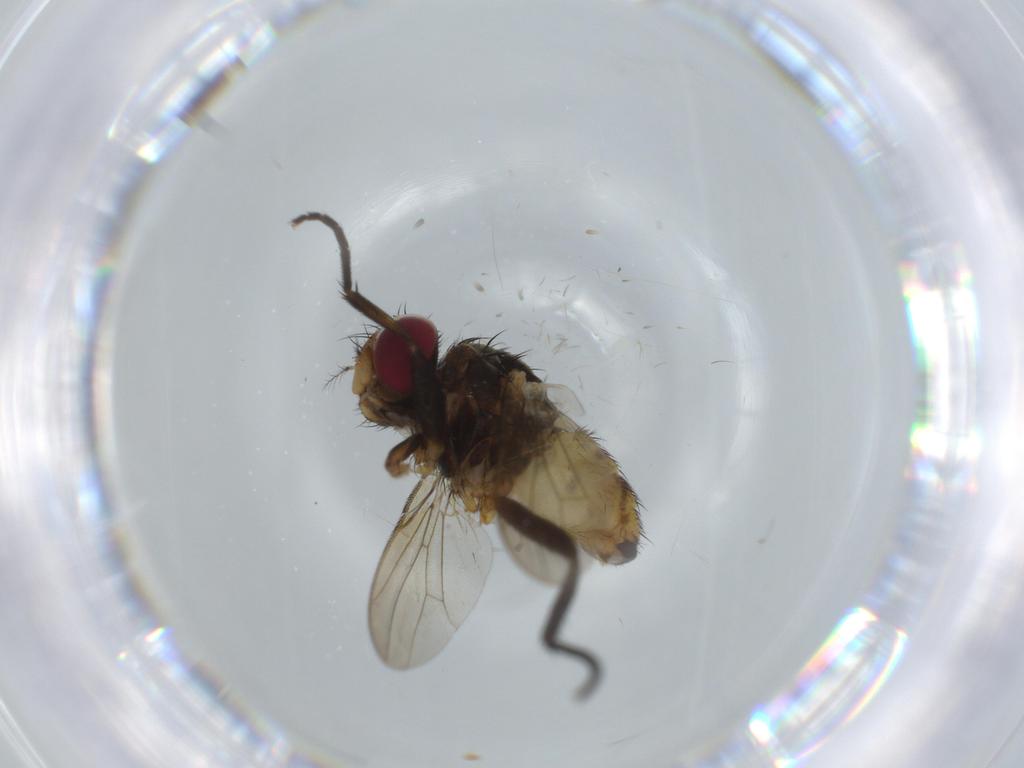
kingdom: Animalia
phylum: Arthropoda
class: Insecta
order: Diptera
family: Anthomyiidae
